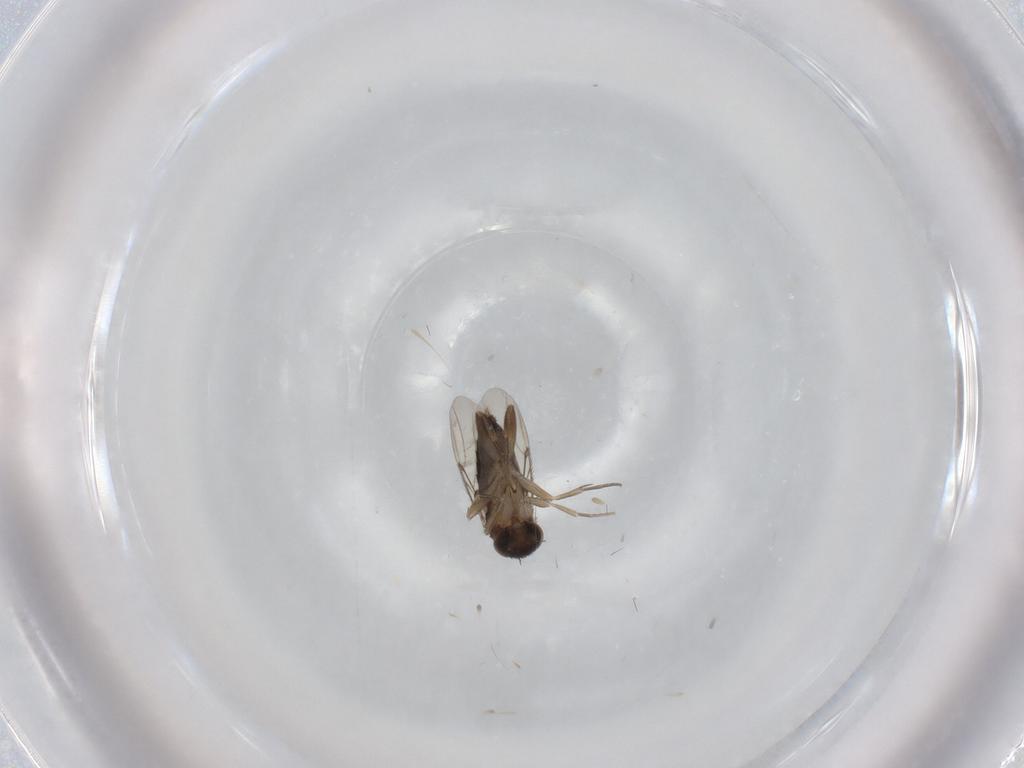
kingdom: Animalia
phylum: Arthropoda
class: Insecta
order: Diptera
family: Phoridae
